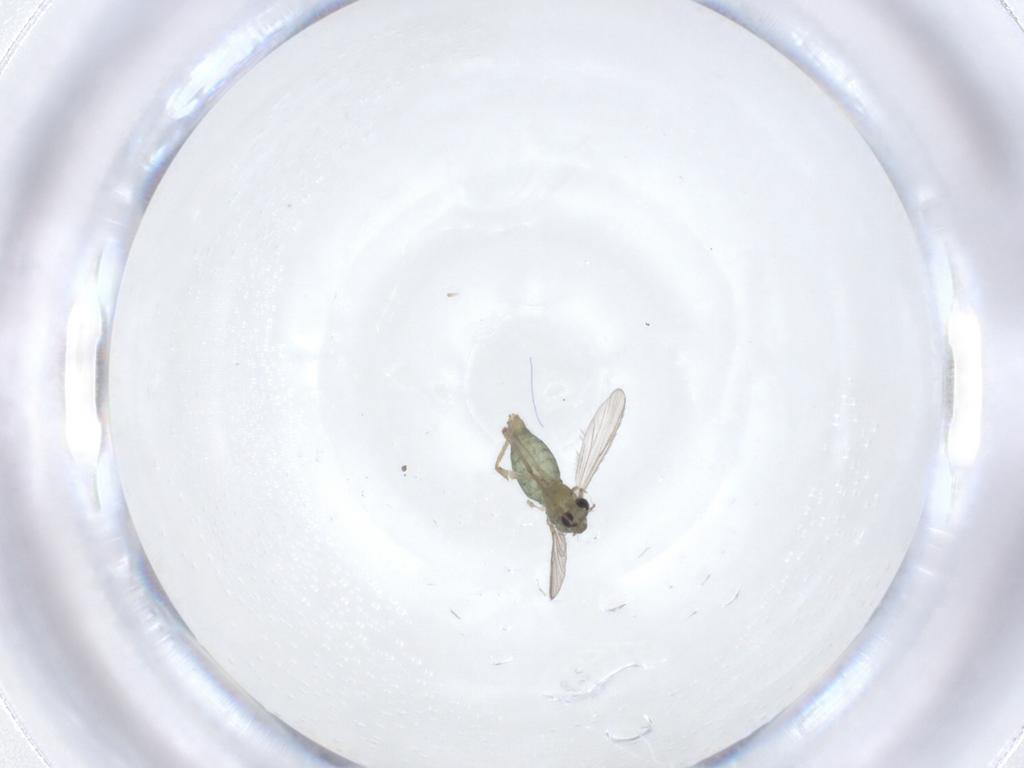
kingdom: Animalia
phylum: Arthropoda
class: Insecta
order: Diptera
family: Chironomidae
